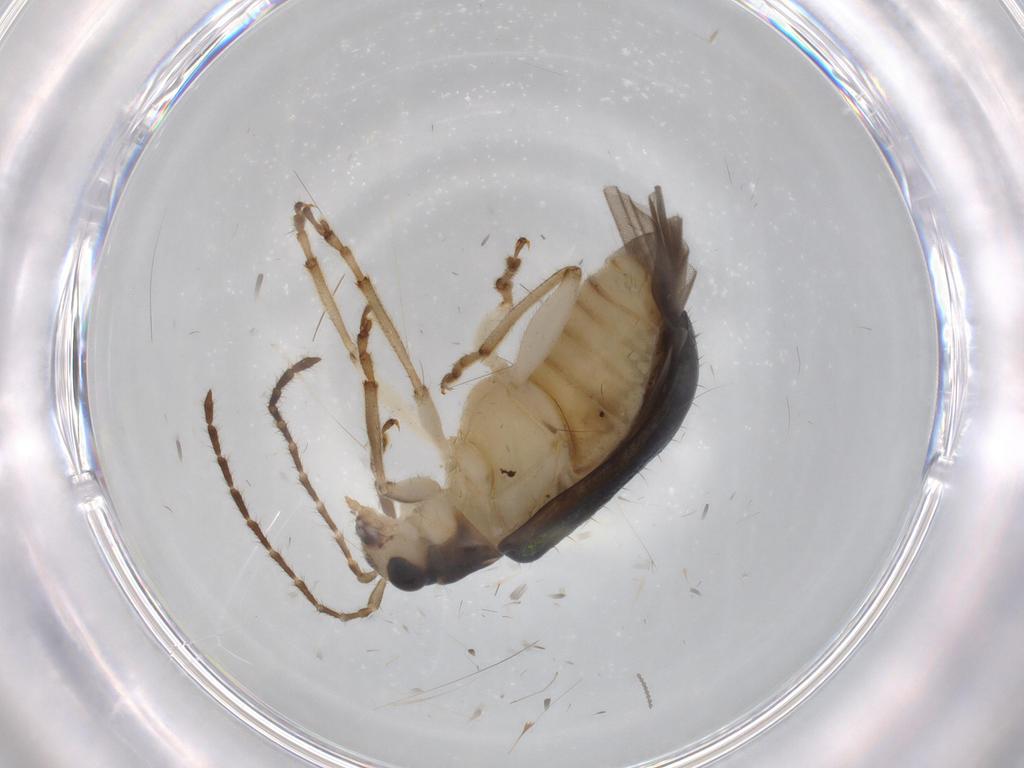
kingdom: Animalia
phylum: Arthropoda
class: Insecta
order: Coleoptera
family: Chrysomelidae
